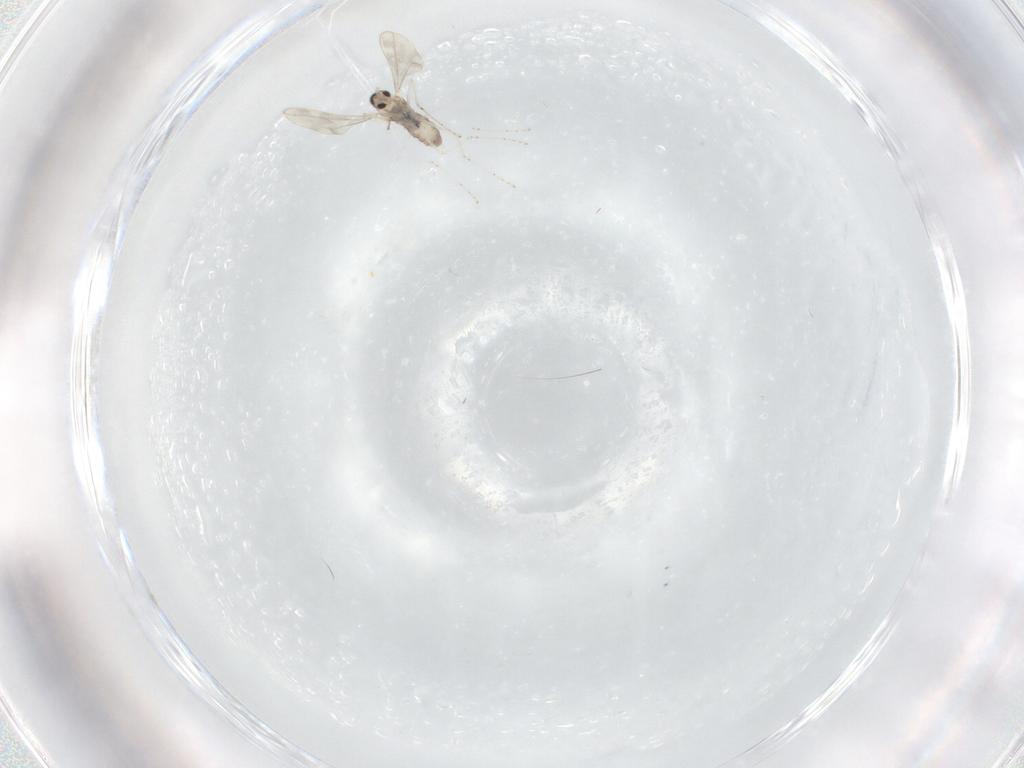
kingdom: Animalia
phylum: Arthropoda
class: Insecta
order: Diptera
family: Cecidomyiidae
